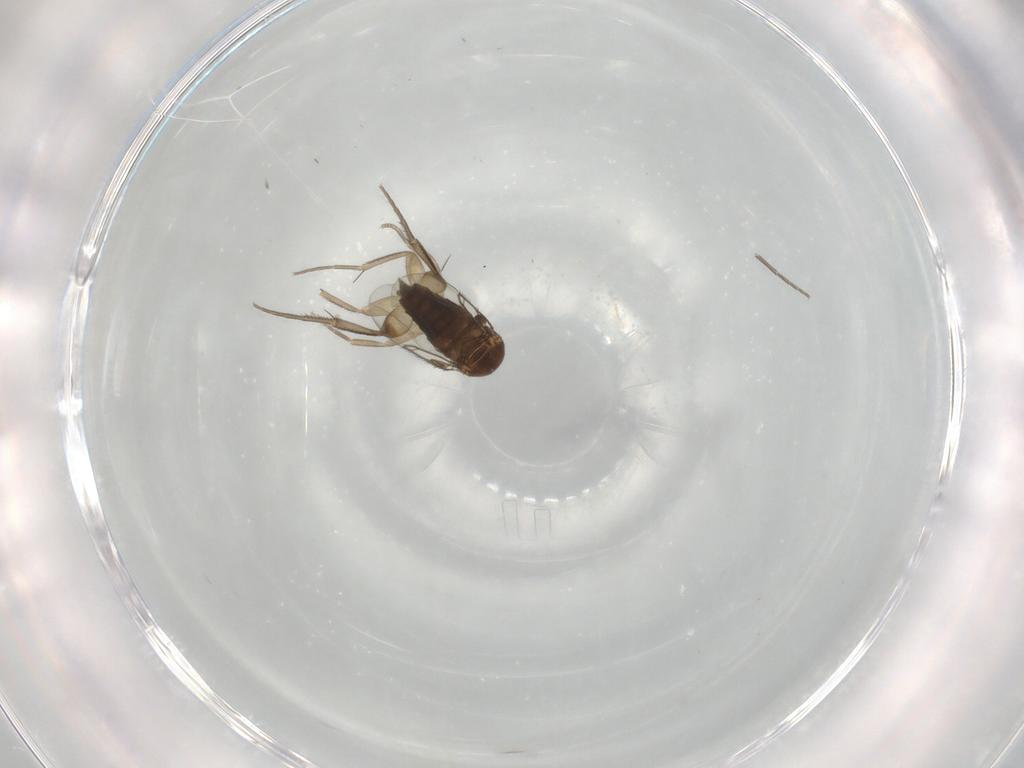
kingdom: Animalia
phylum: Arthropoda
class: Insecta
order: Diptera
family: Phoridae
